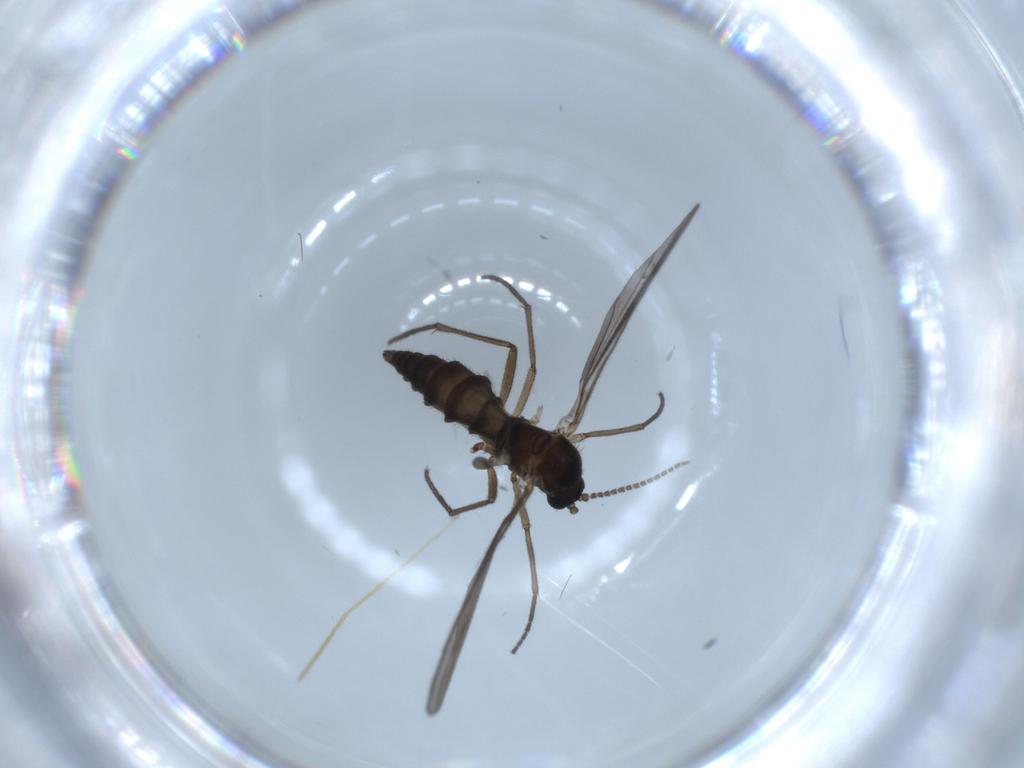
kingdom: Animalia
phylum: Arthropoda
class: Insecta
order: Diptera
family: Sciaridae
